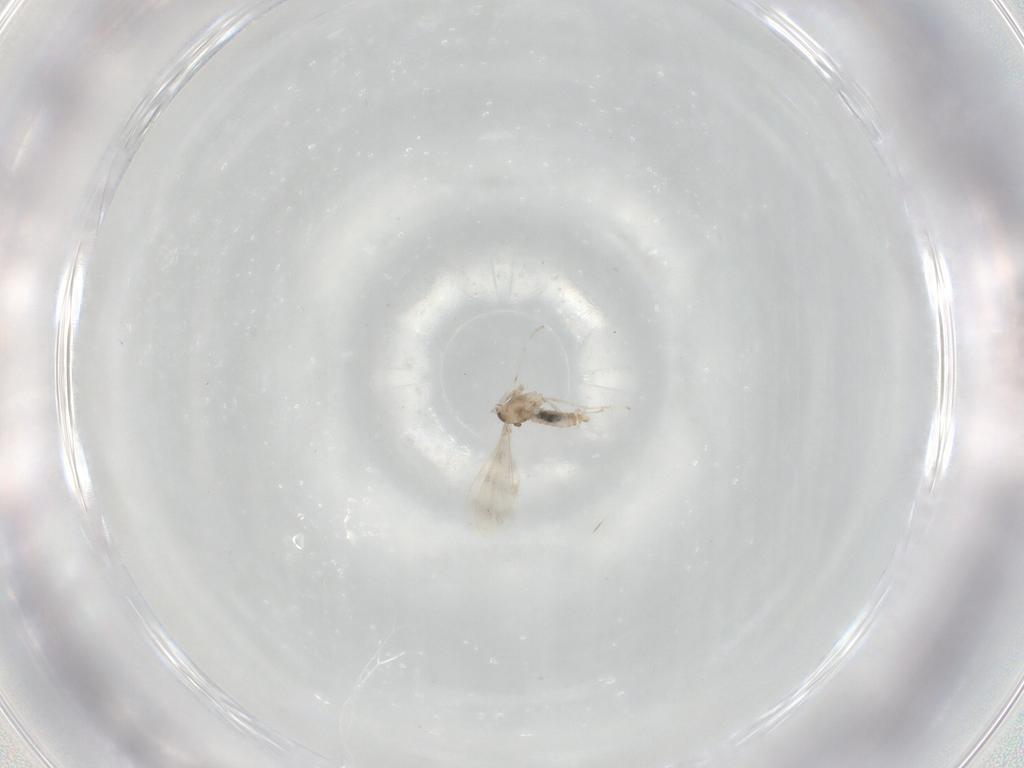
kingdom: Animalia
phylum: Arthropoda
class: Insecta
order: Diptera
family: Cecidomyiidae
